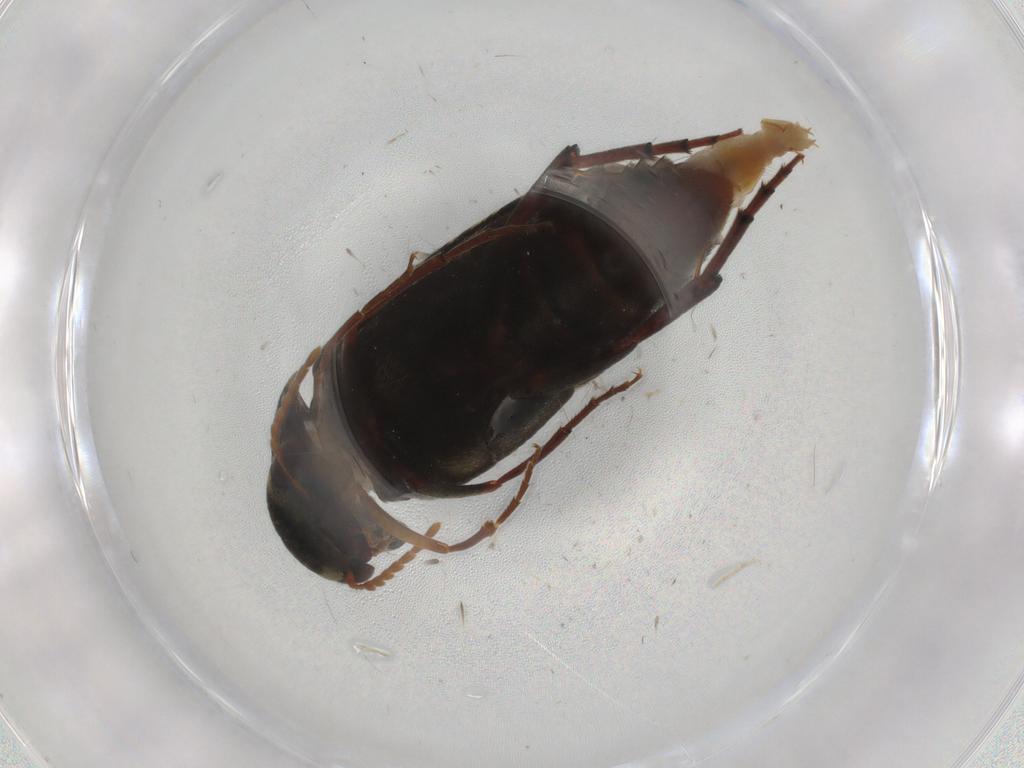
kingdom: Animalia
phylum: Arthropoda
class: Insecta
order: Coleoptera
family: Mordellidae
